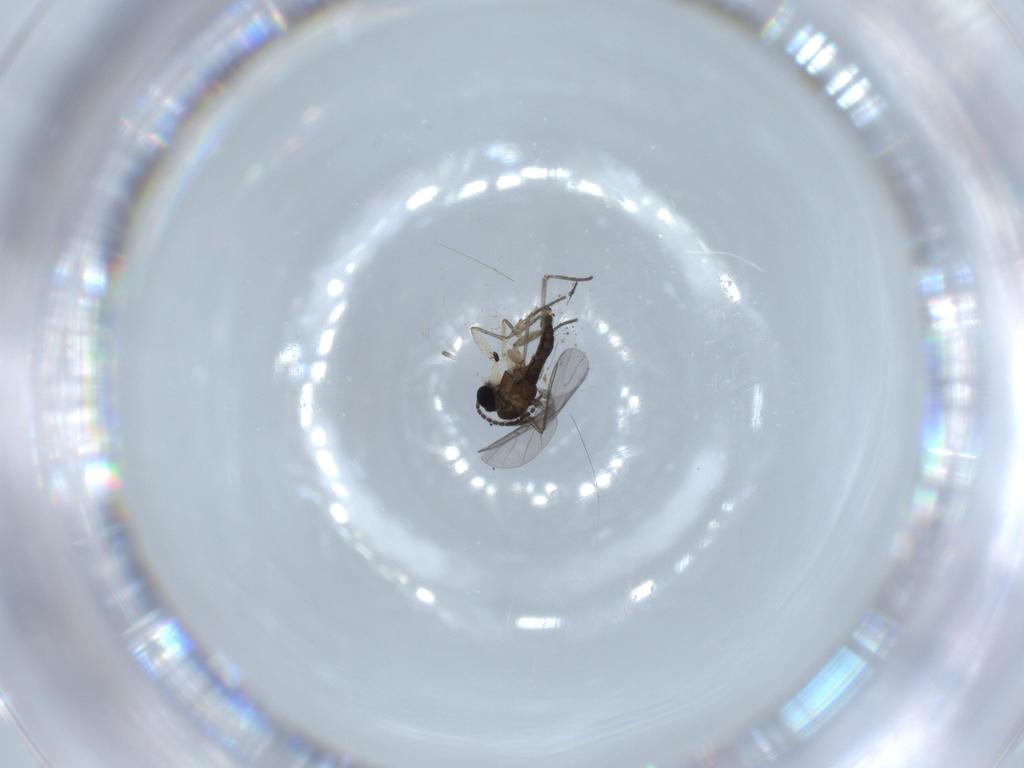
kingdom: Animalia
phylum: Arthropoda
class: Insecta
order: Diptera
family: Sciaridae
